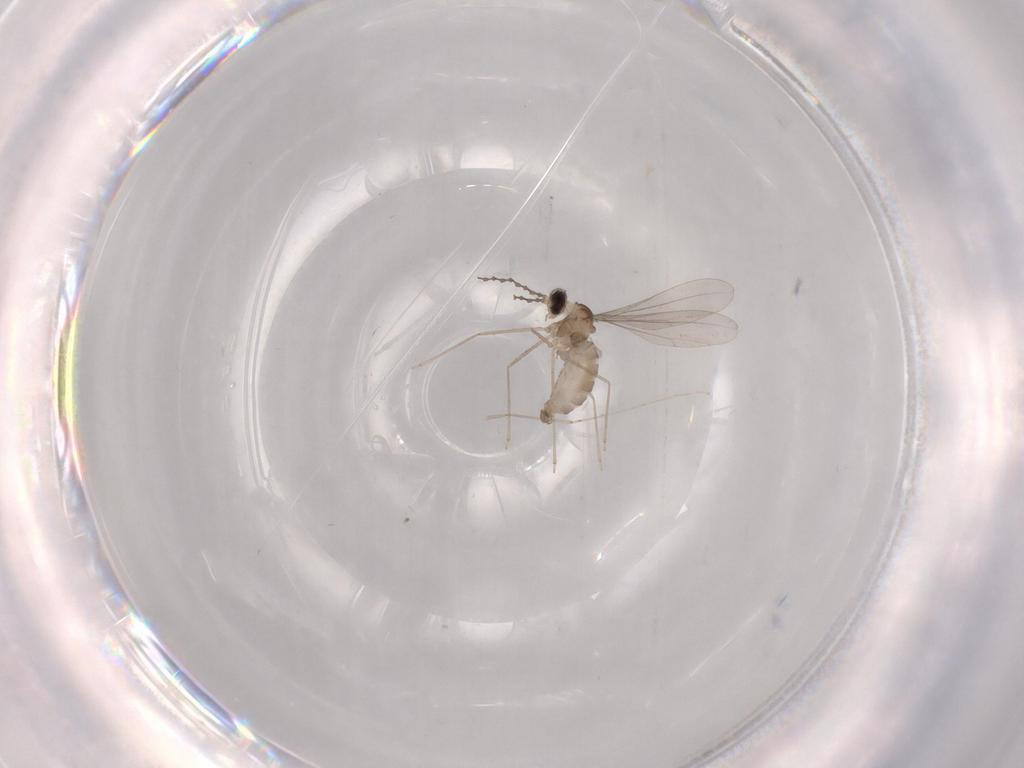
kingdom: Animalia
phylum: Arthropoda
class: Insecta
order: Diptera
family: Cecidomyiidae
